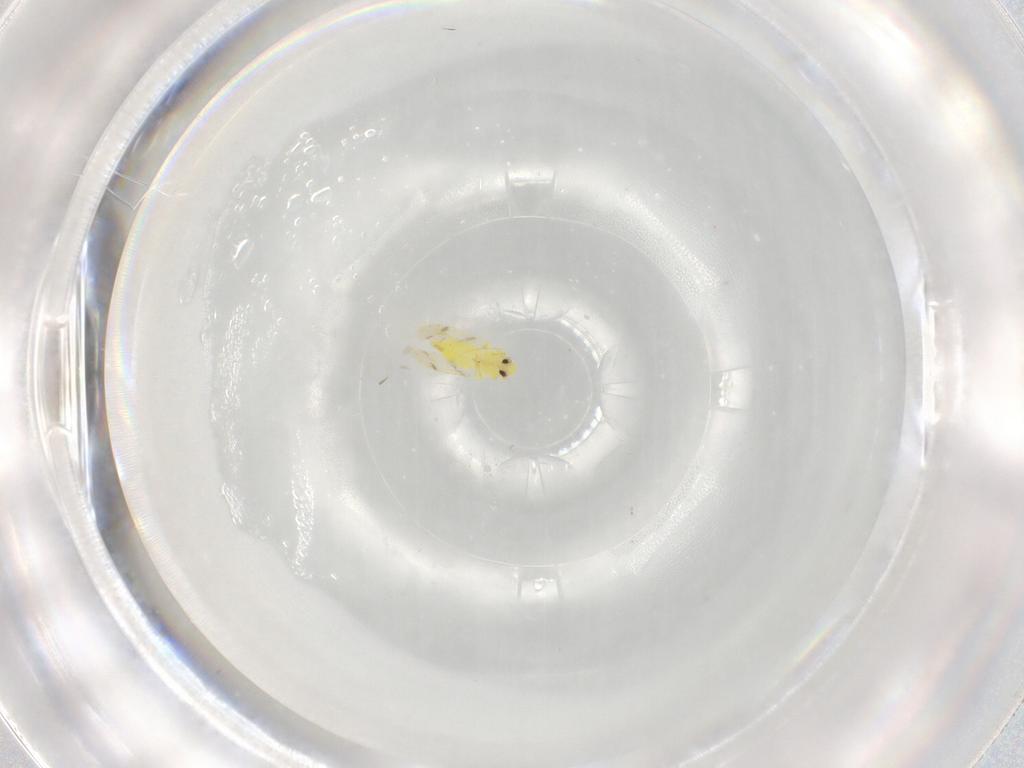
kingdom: Animalia
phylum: Arthropoda
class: Insecta
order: Hemiptera
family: Aleyrodidae
